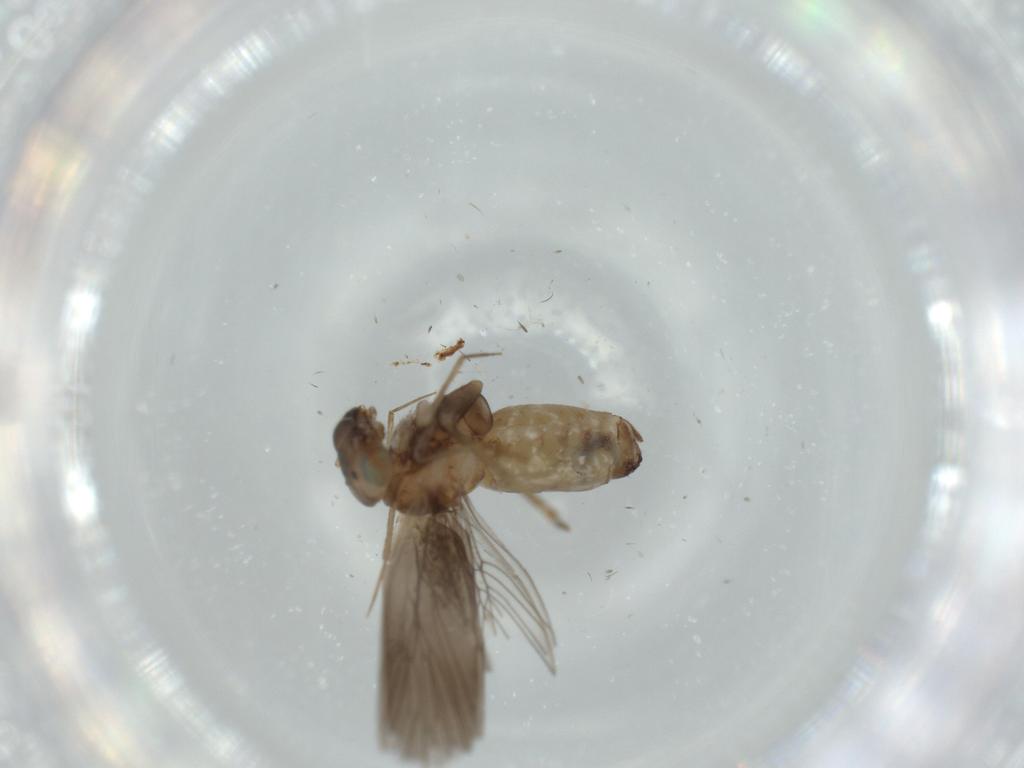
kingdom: Animalia
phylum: Arthropoda
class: Insecta
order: Psocodea
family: Lepidopsocidae
